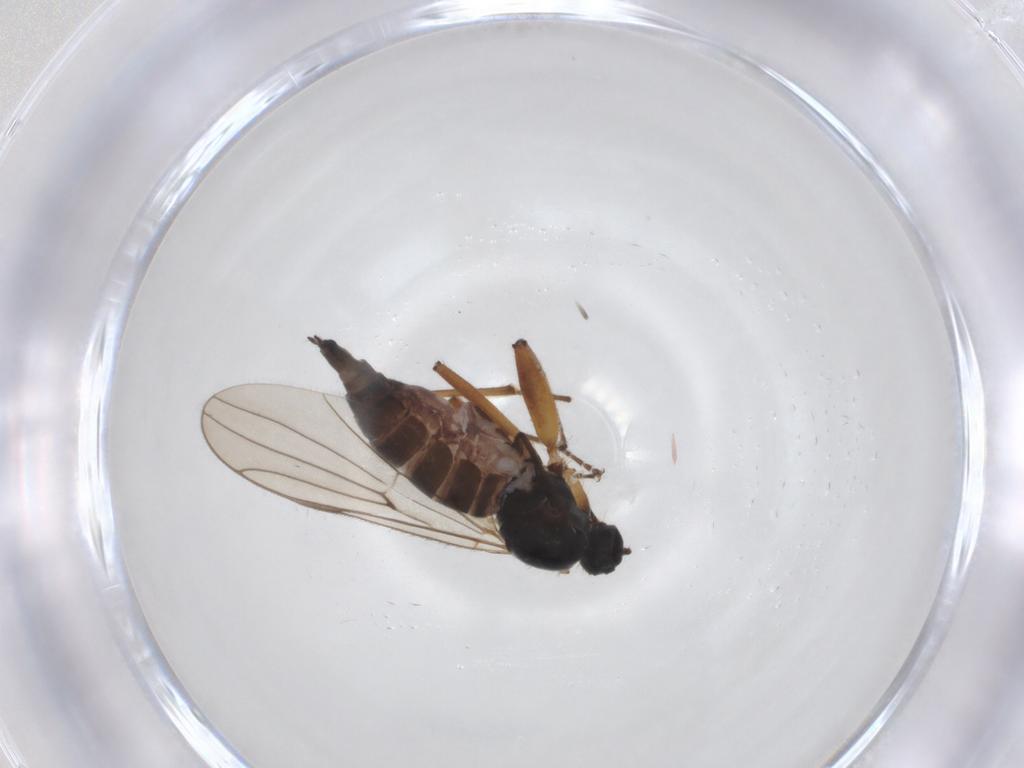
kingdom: Animalia
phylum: Arthropoda
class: Insecta
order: Diptera
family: Hybotidae
